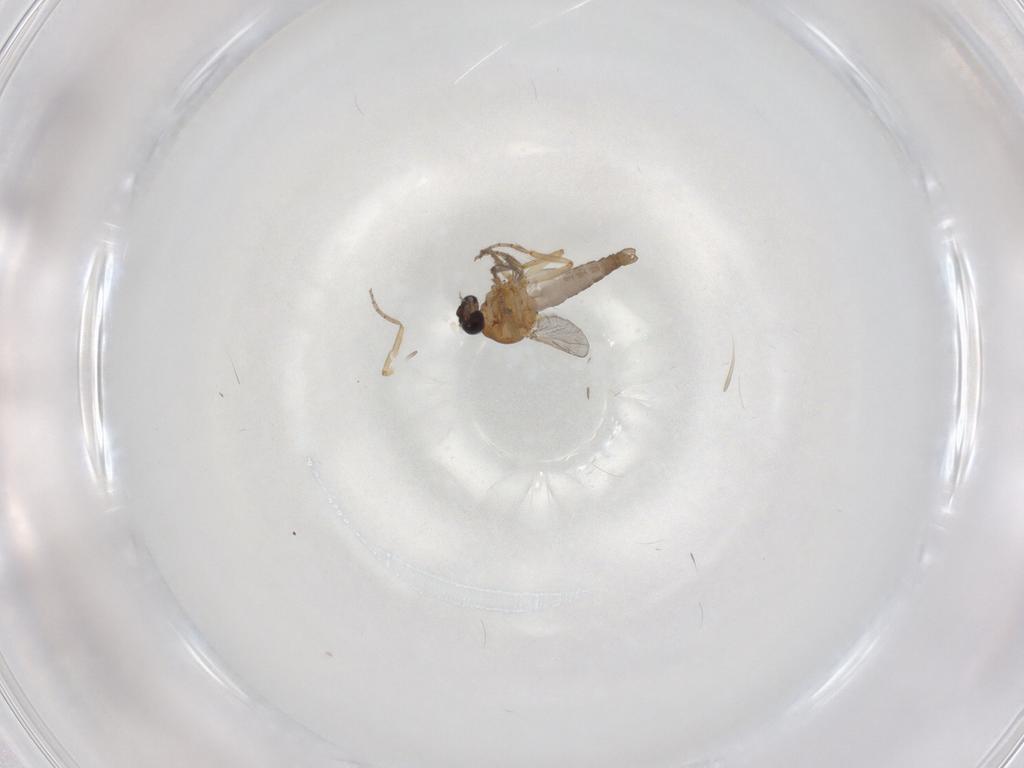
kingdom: Animalia
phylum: Arthropoda
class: Insecta
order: Diptera
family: Ceratopogonidae
